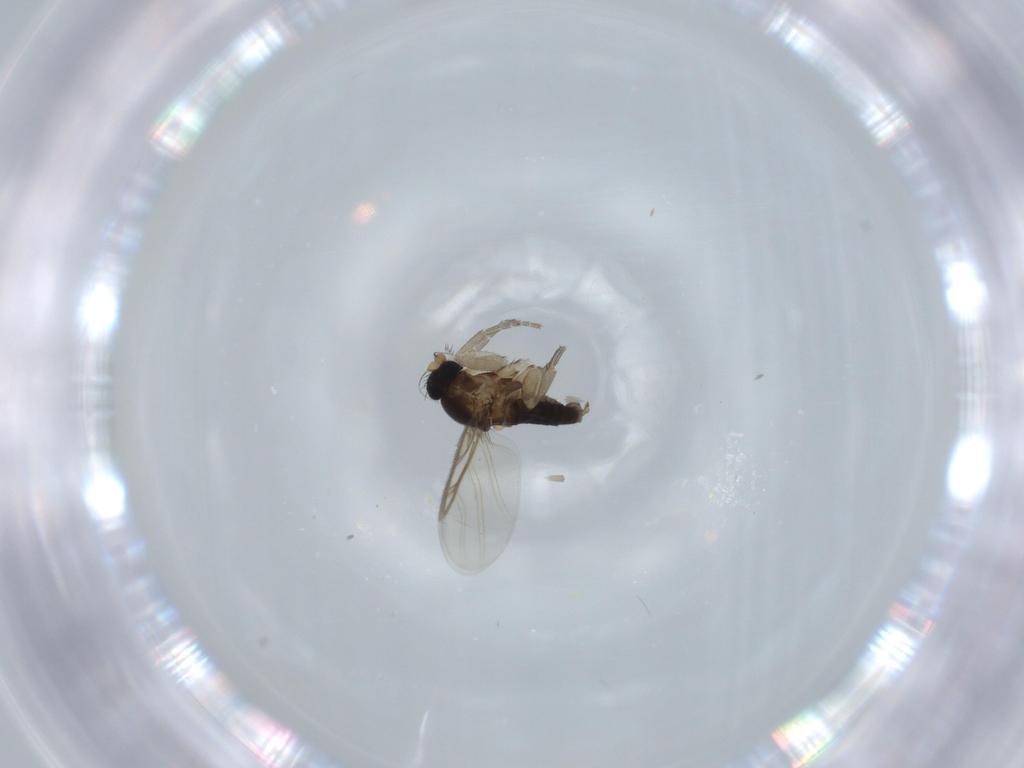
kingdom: Animalia
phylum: Arthropoda
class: Insecta
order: Diptera
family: Phoridae
